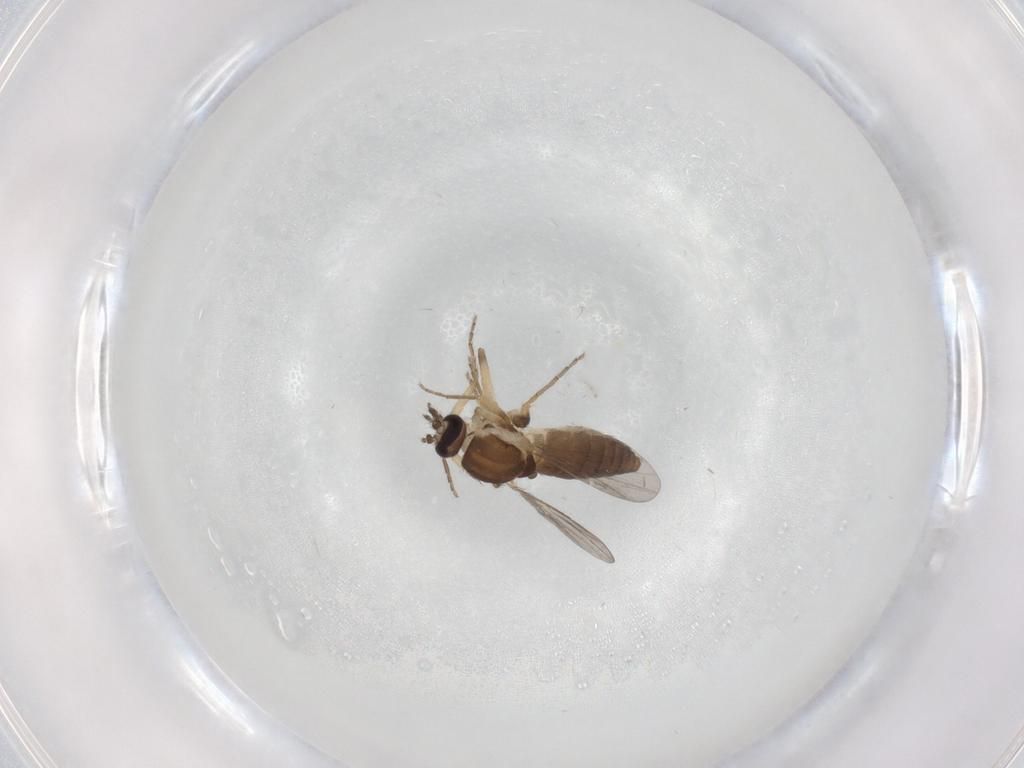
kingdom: Animalia
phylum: Arthropoda
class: Insecta
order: Diptera
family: Ceratopogonidae
